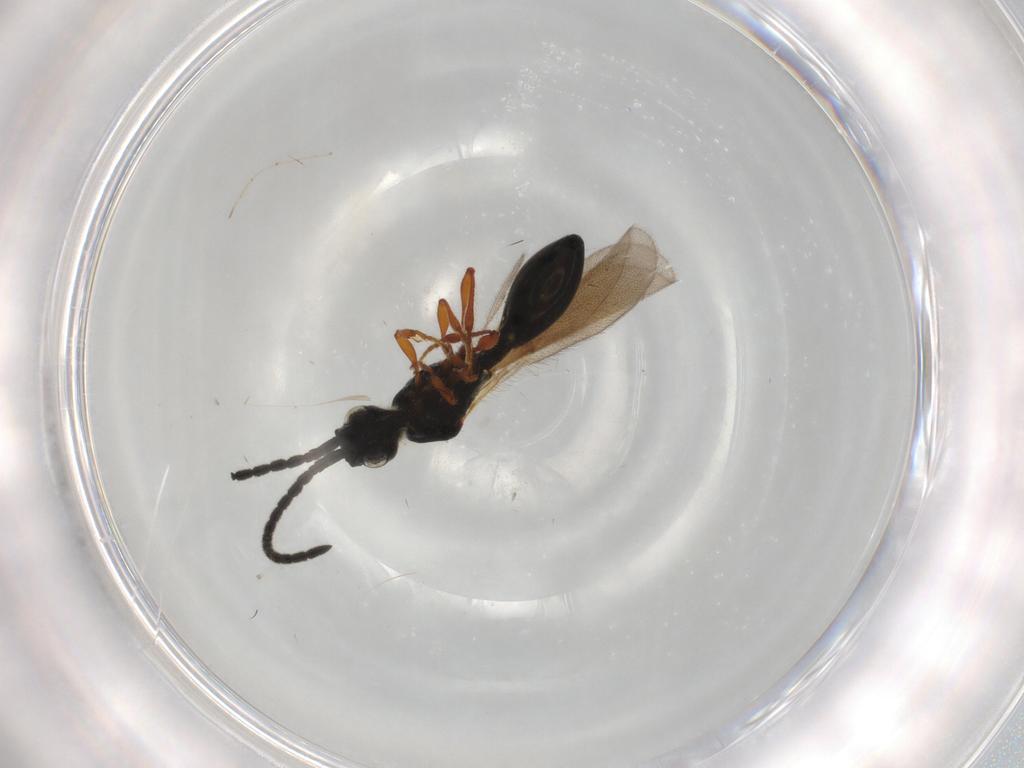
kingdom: Animalia
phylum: Arthropoda
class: Insecta
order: Hymenoptera
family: Diapriidae
